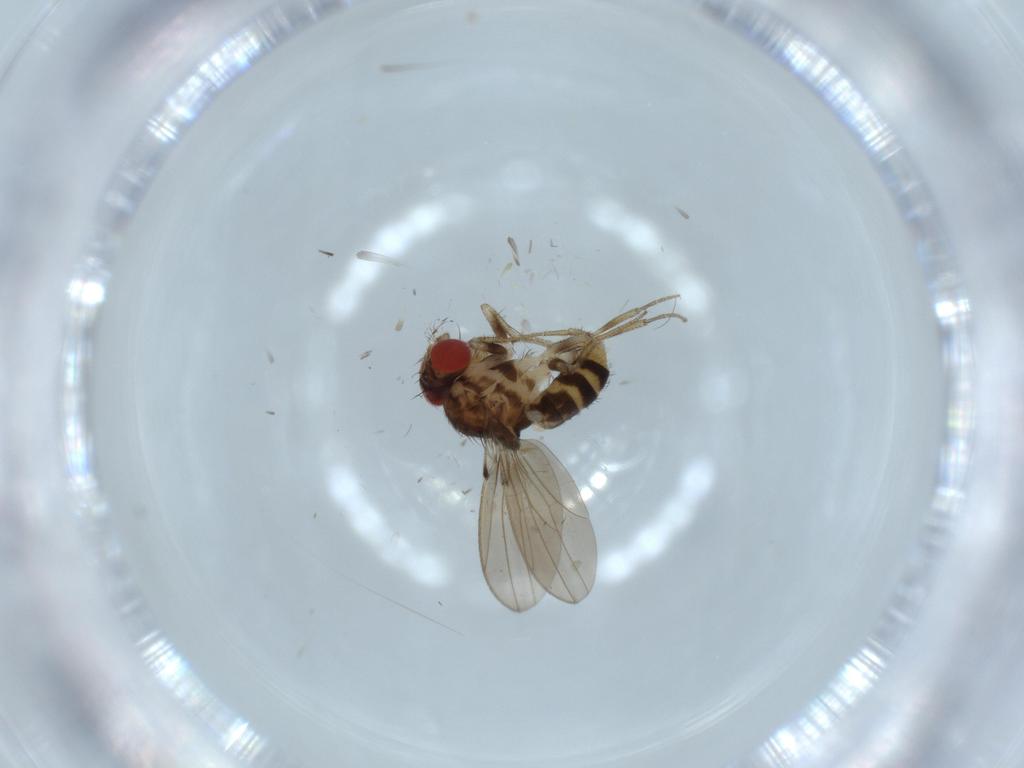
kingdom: Animalia
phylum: Arthropoda
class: Insecta
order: Diptera
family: Drosophilidae
